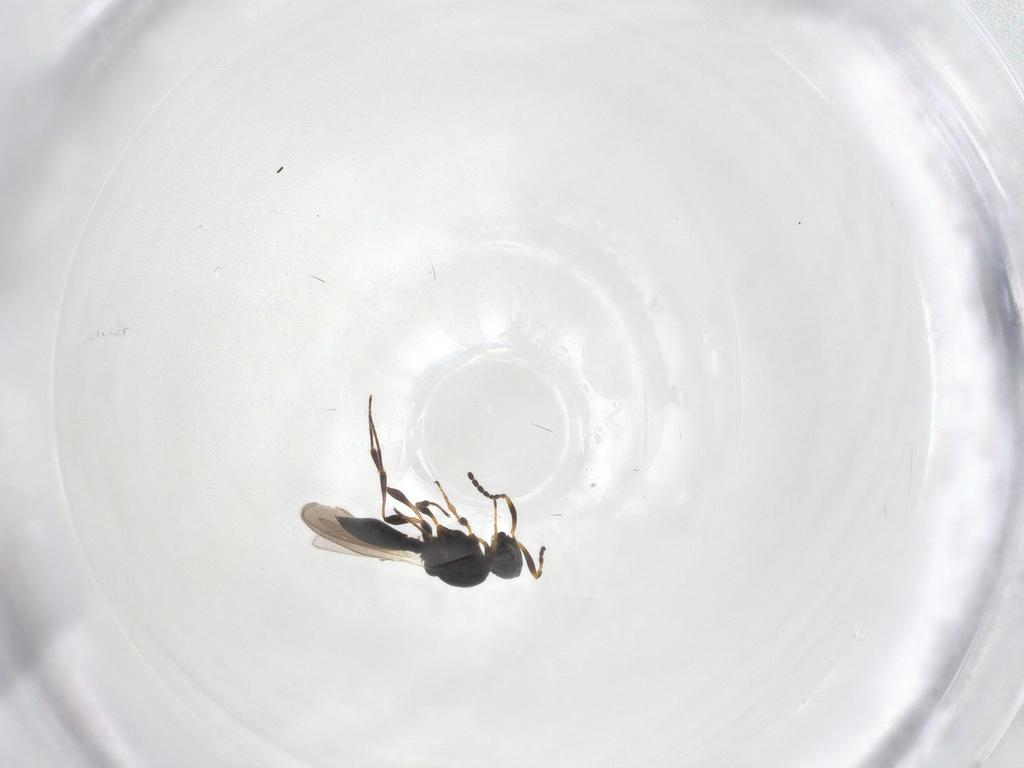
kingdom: Animalia
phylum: Arthropoda
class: Insecta
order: Hymenoptera
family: Platygastridae
